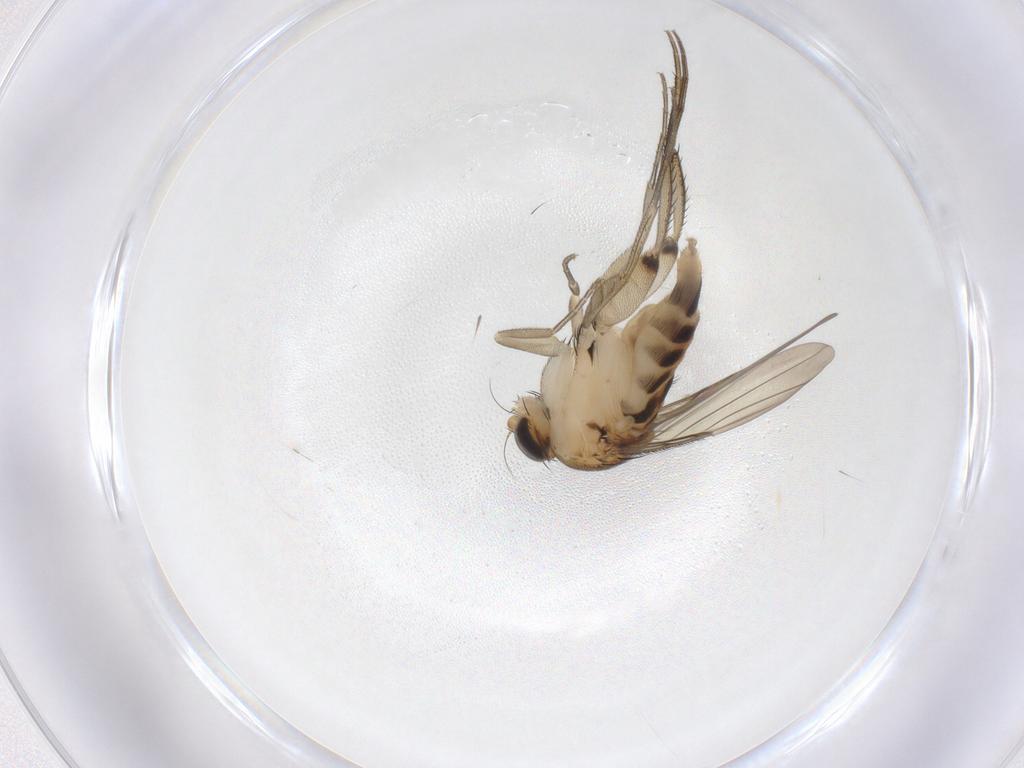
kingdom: Animalia
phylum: Arthropoda
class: Insecta
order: Diptera
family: Phoridae
